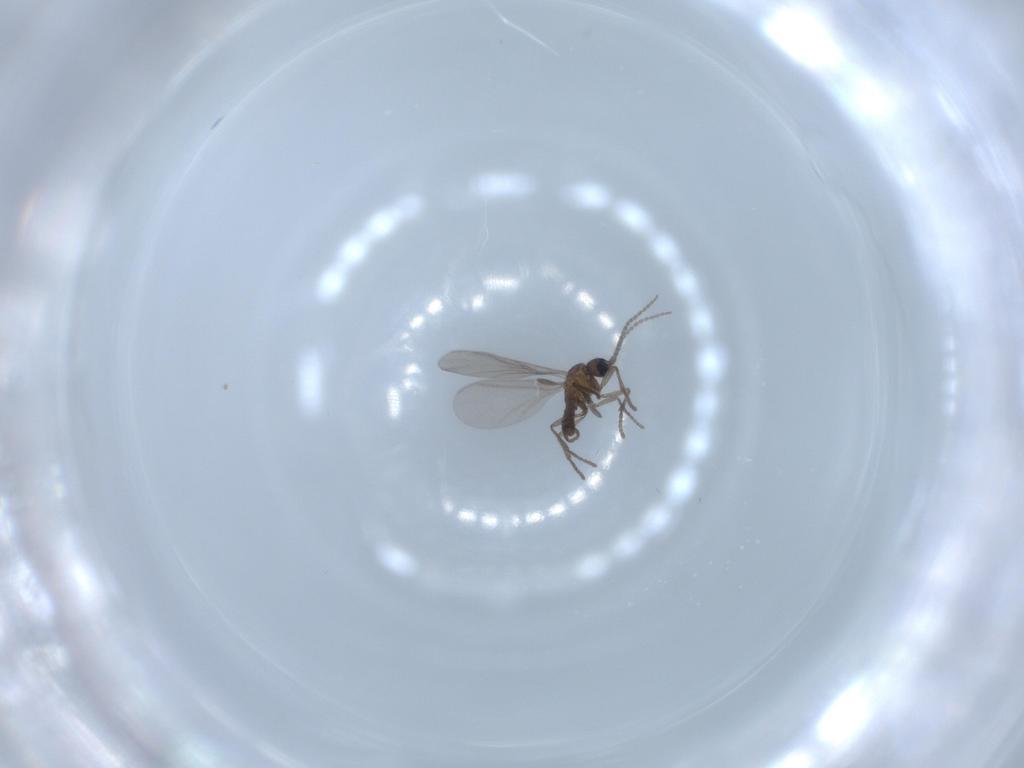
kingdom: Animalia
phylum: Arthropoda
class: Insecta
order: Diptera
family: Cecidomyiidae
